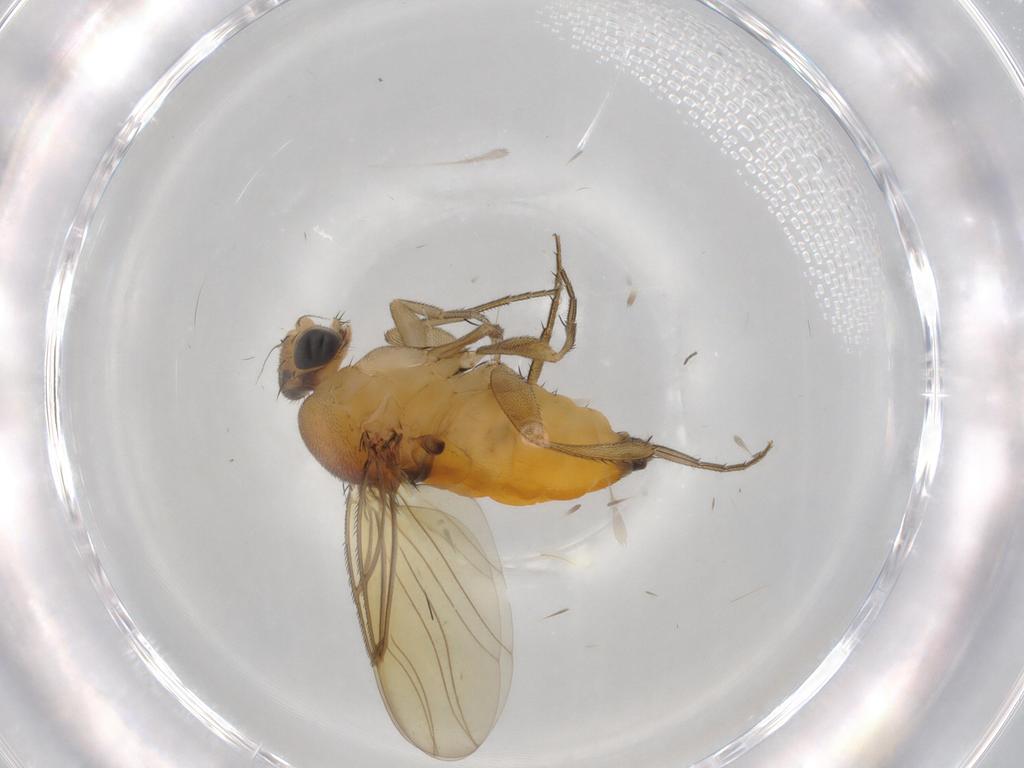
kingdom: Animalia
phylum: Arthropoda
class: Insecta
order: Diptera
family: Phoridae
